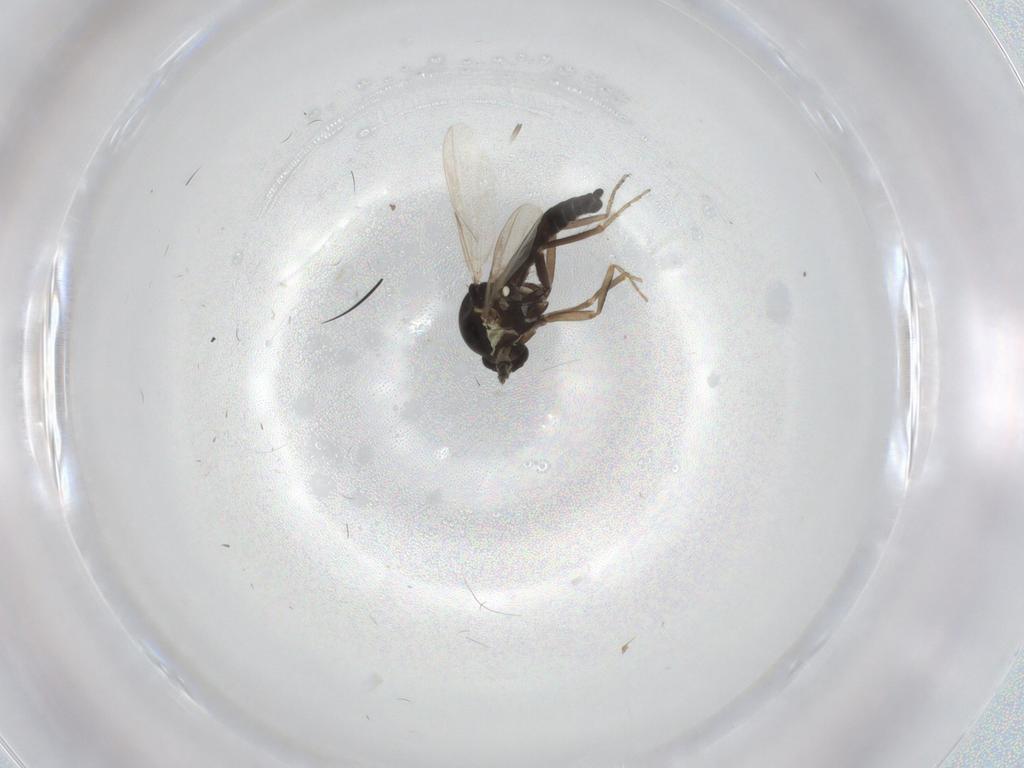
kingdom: Animalia
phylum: Arthropoda
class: Insecta
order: Diptera
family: Ceratopogonidae
